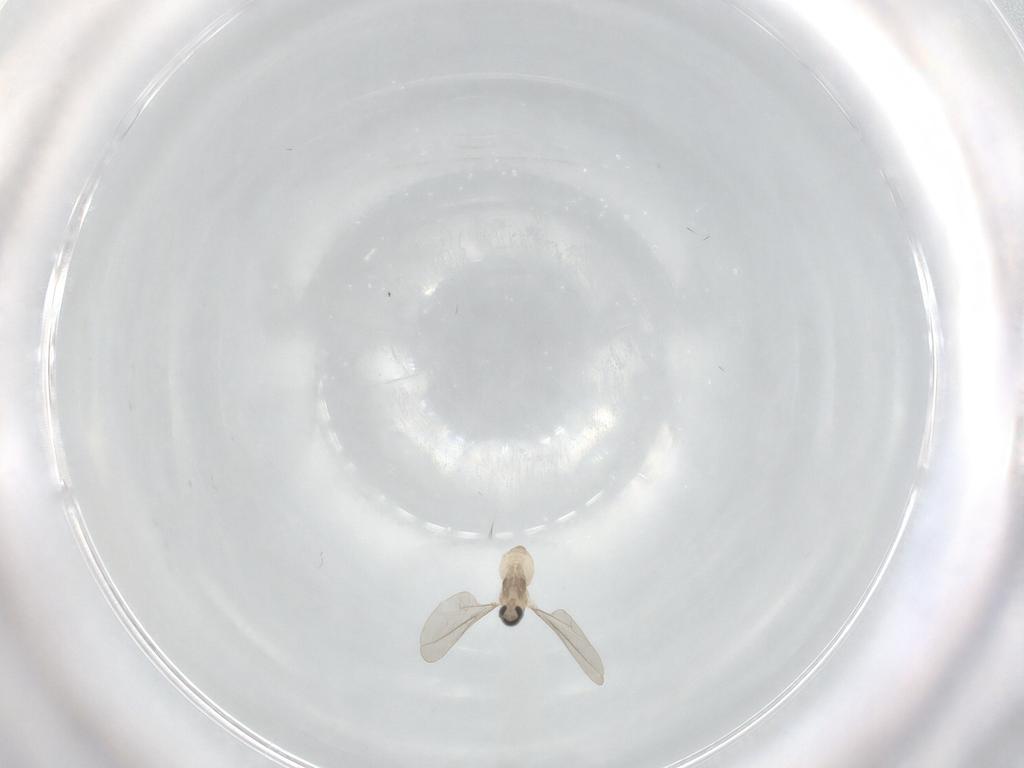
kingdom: Animalia
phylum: Arthropoda
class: Insecta
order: Diptera
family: Cecidomyiidae
